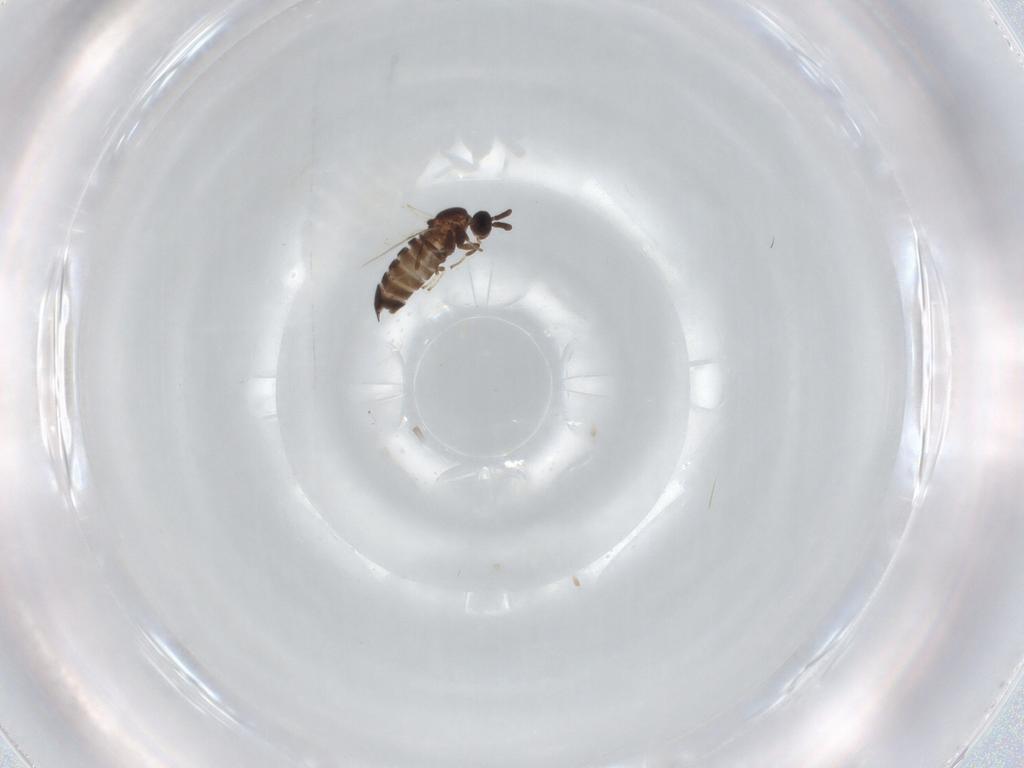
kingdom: Animalia
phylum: Arthropoda
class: Insecta
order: Diptera
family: Scatopsidae
